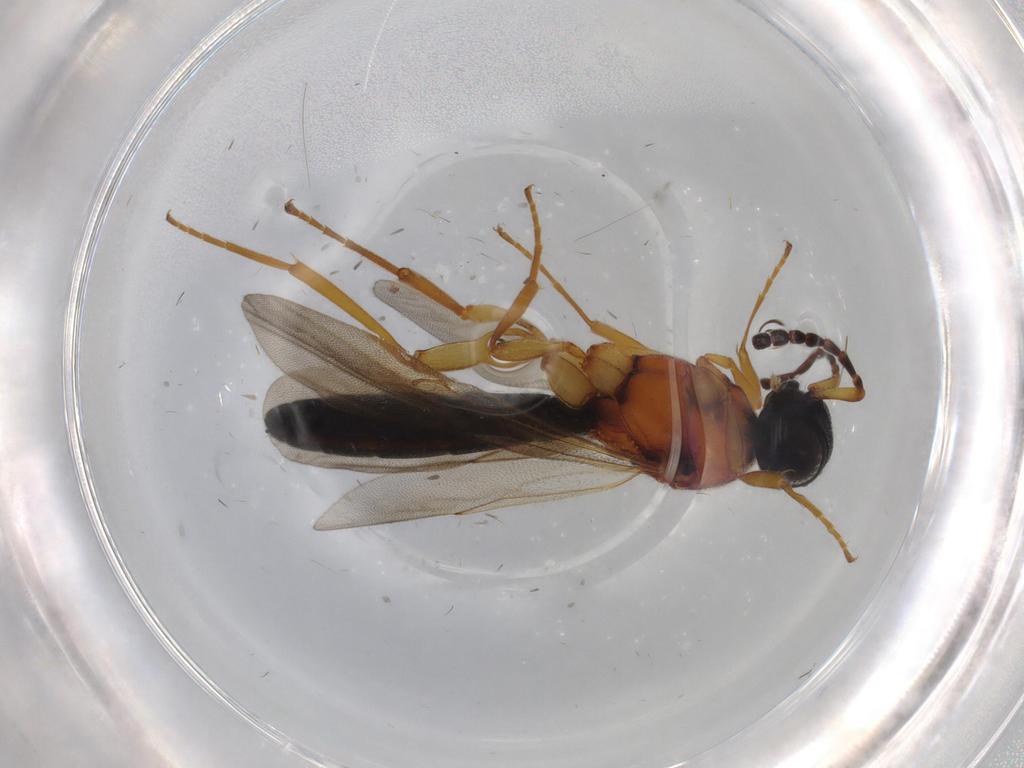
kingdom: Animalia
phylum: Arthropoda
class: Insecta
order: Hymenoptera
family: Scelionidae
